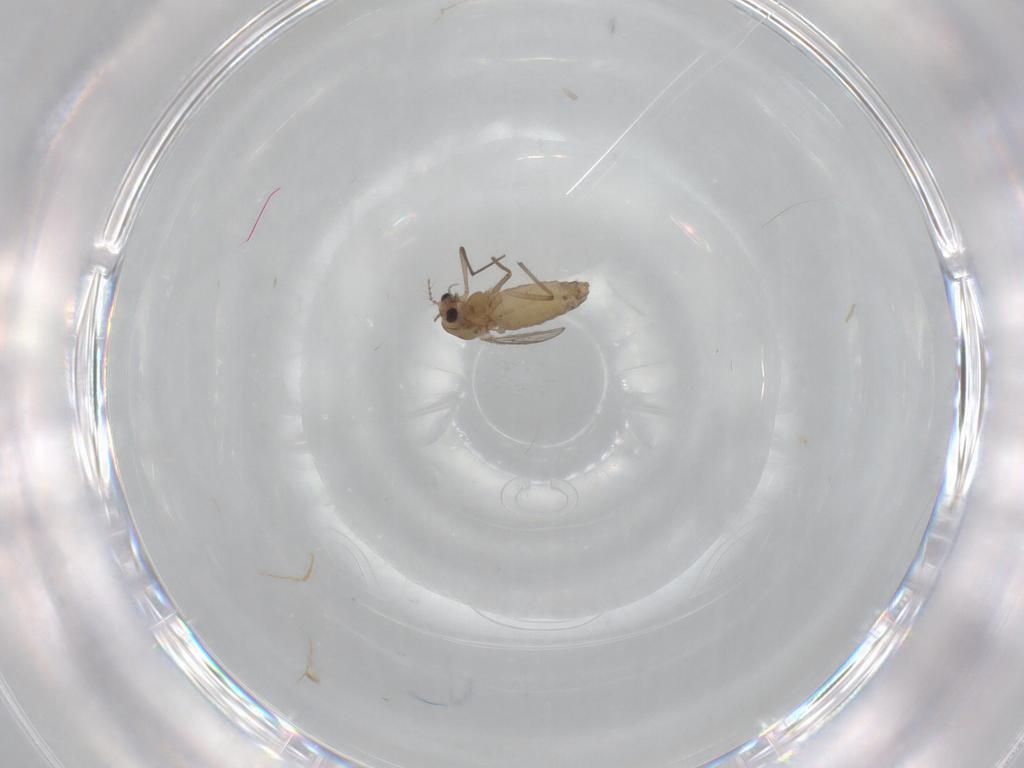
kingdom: Animalia
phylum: Arthropoda
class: Insecta
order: Diptera
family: Chironomidae
